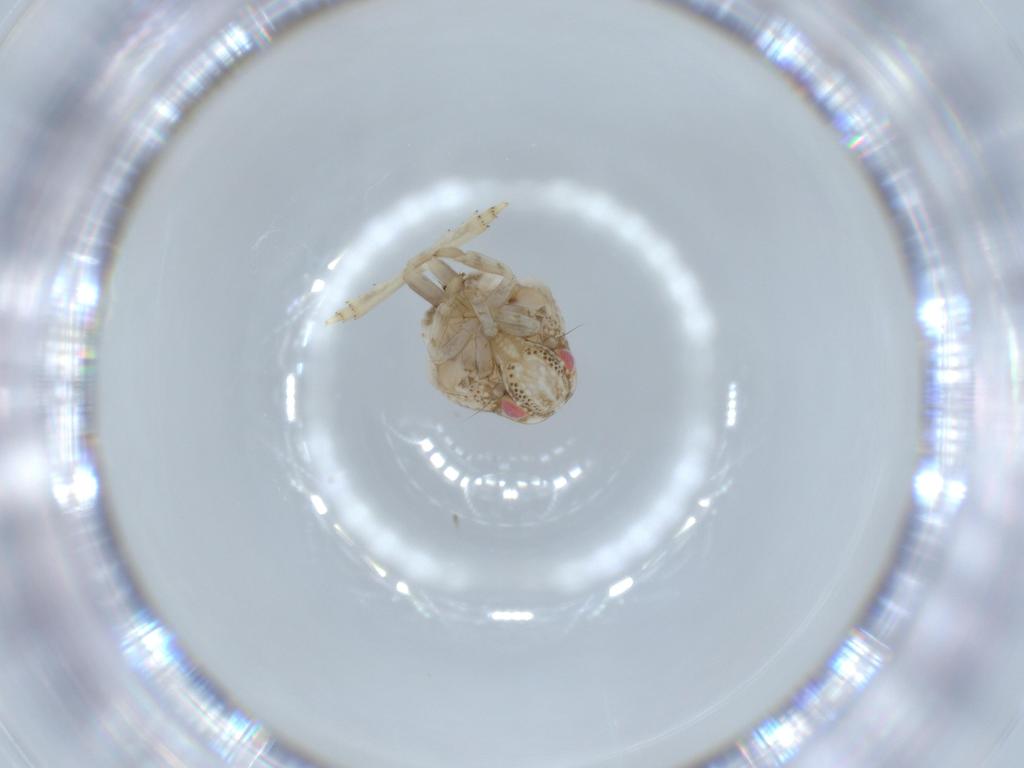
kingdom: Animalia
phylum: Arthropoda
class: Insecta
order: Hemiptera
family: Acanaloniidae
